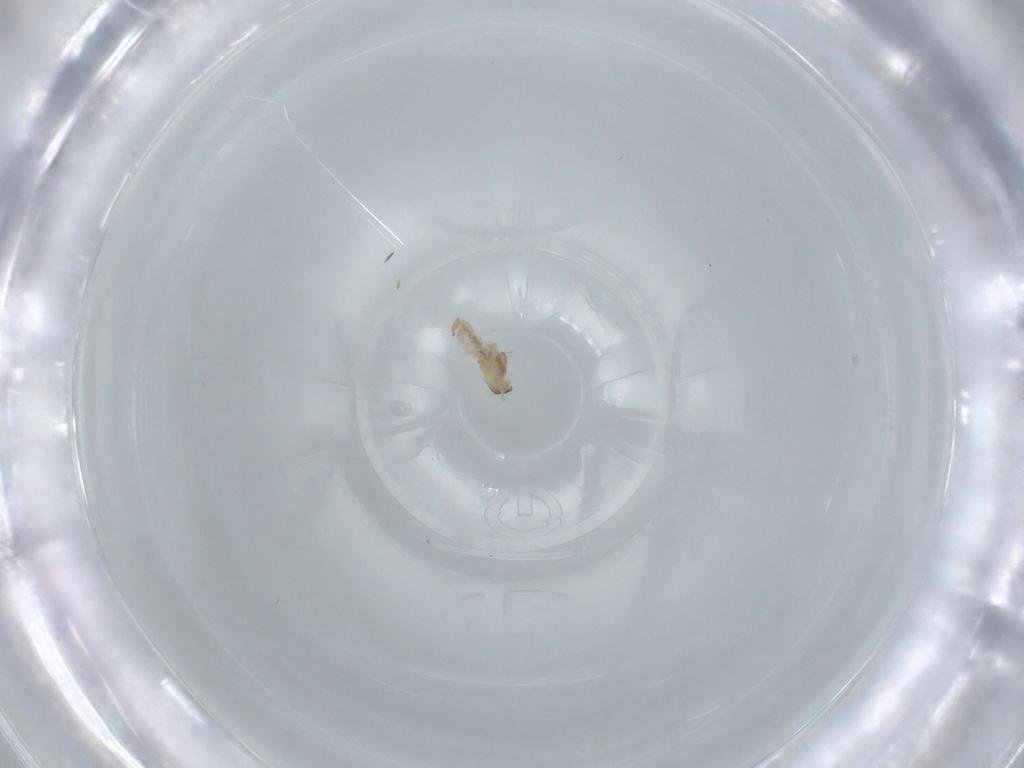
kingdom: Animalia
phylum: Arthropoda
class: Insecta
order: Diptera
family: Cecidomyiidae
